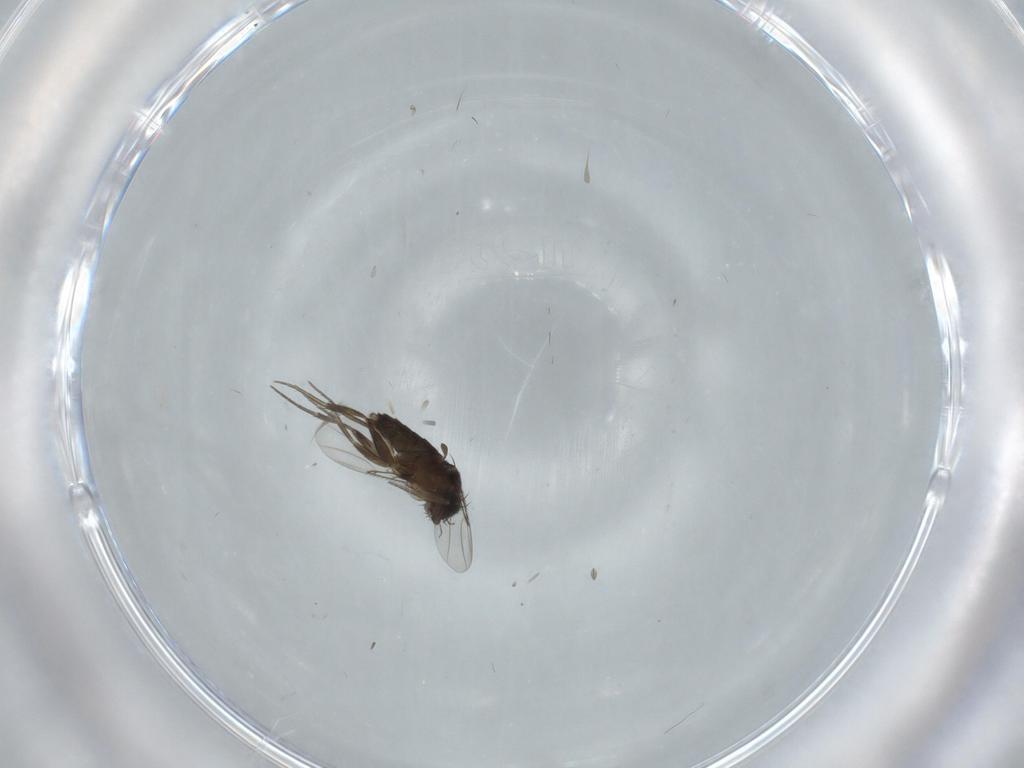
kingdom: Animalia
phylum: Arthropoda
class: Insecta
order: Diptera
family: Phoridae
